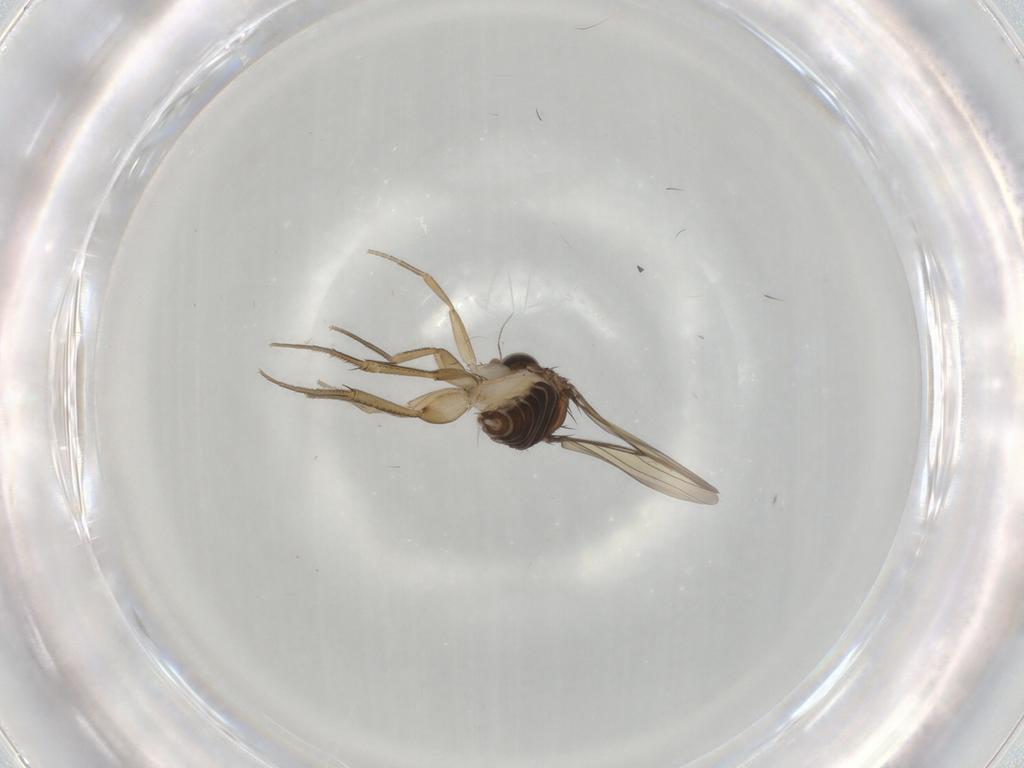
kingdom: Animalia
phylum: Arthropoda
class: Insecta
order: Diptera
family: Phoridae
